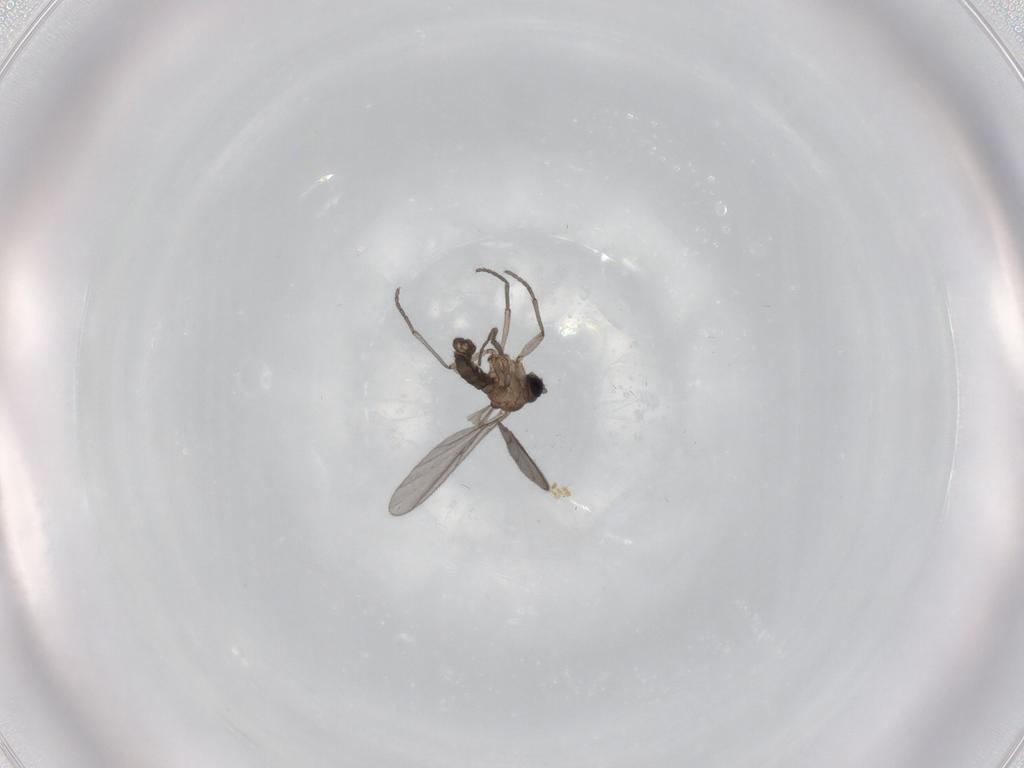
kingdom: Animalia
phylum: Arthropoda
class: Insecta
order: Diptera
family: Sciaridae
